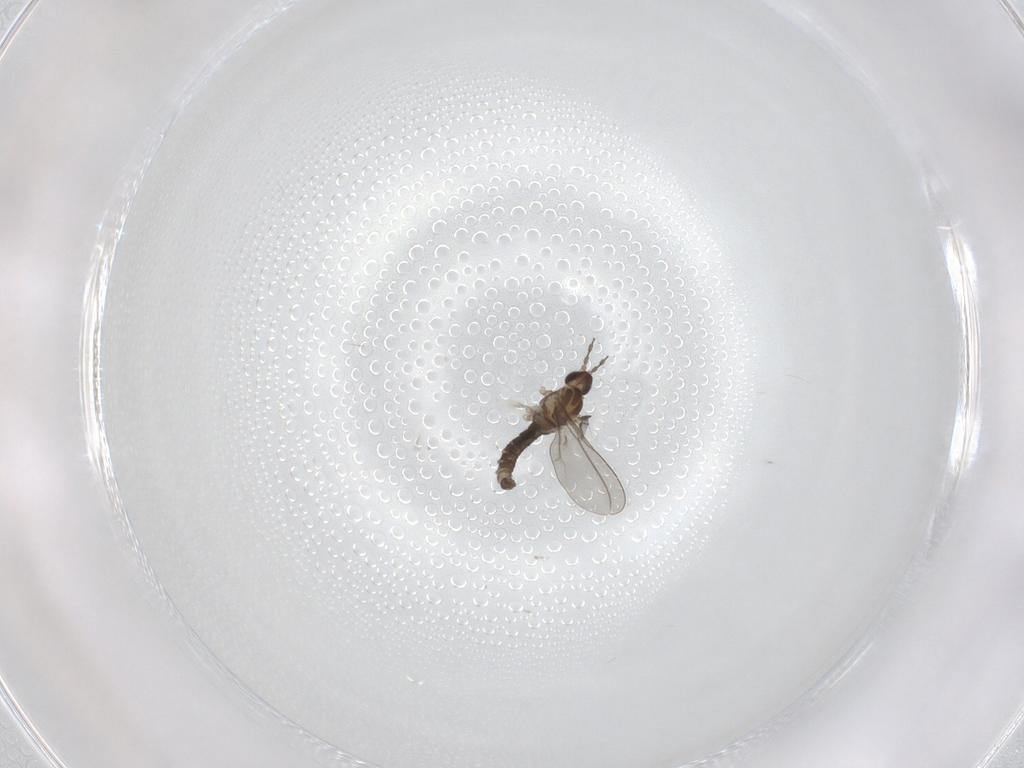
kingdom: Animalia
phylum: Arthropoda
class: Insecta
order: Diptera
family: Cecidomyiidae
